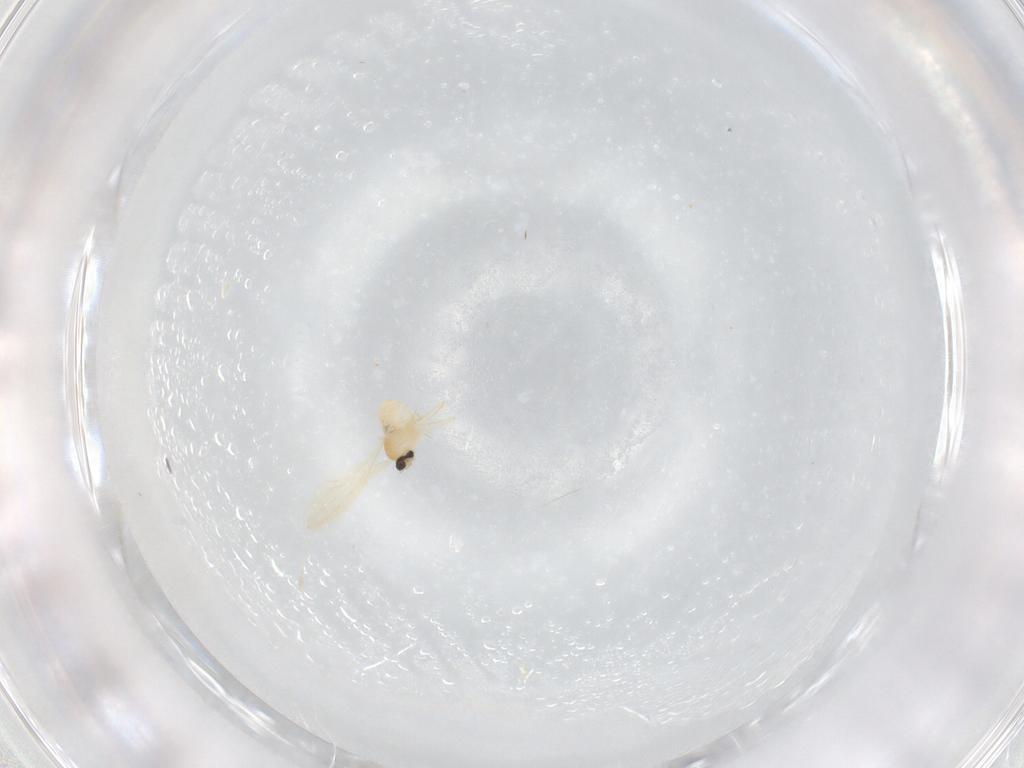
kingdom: Animalia
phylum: Arthropoda
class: Insecta
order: Diptera
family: Cecidomyiidae
